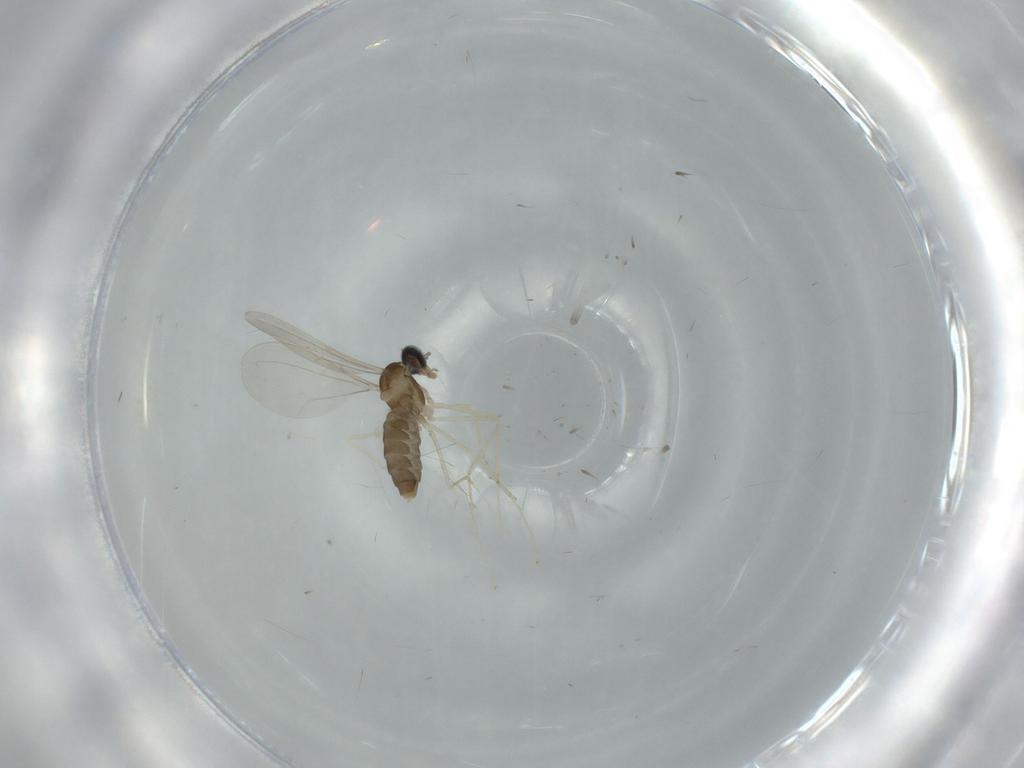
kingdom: Animalia
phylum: Arthropoda
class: Insecta
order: Diptera
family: Cecidomyiidae
